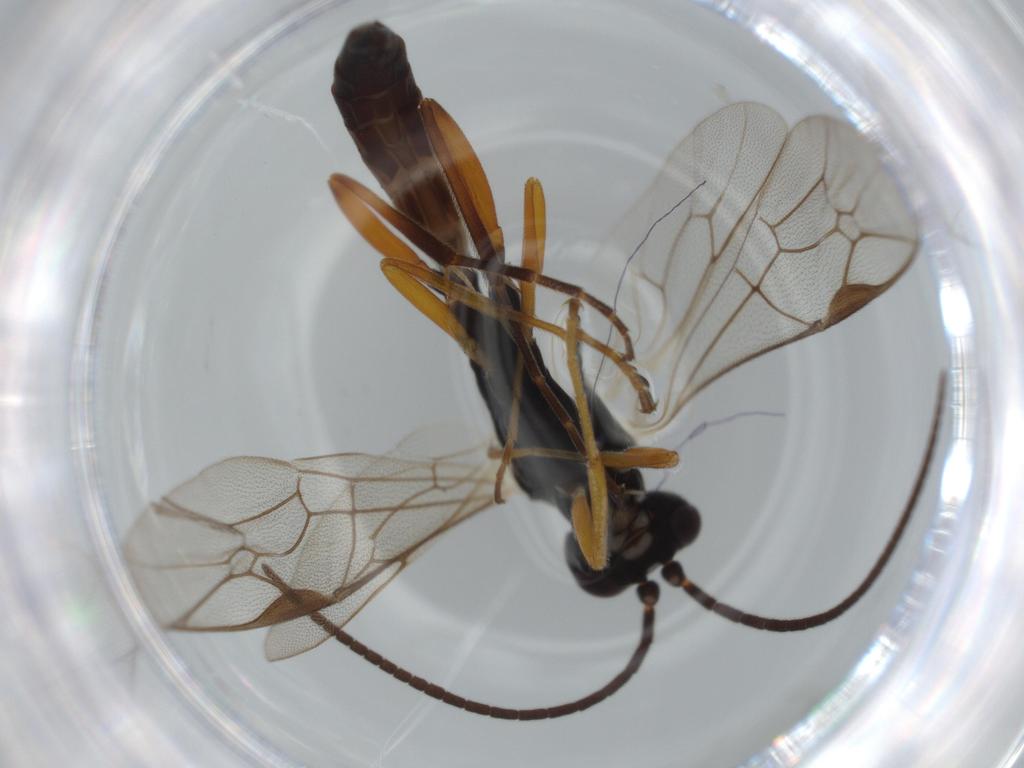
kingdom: Animalia
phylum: Arthropoda
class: Insecta
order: Hymenoptera
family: Ichneumonidae
